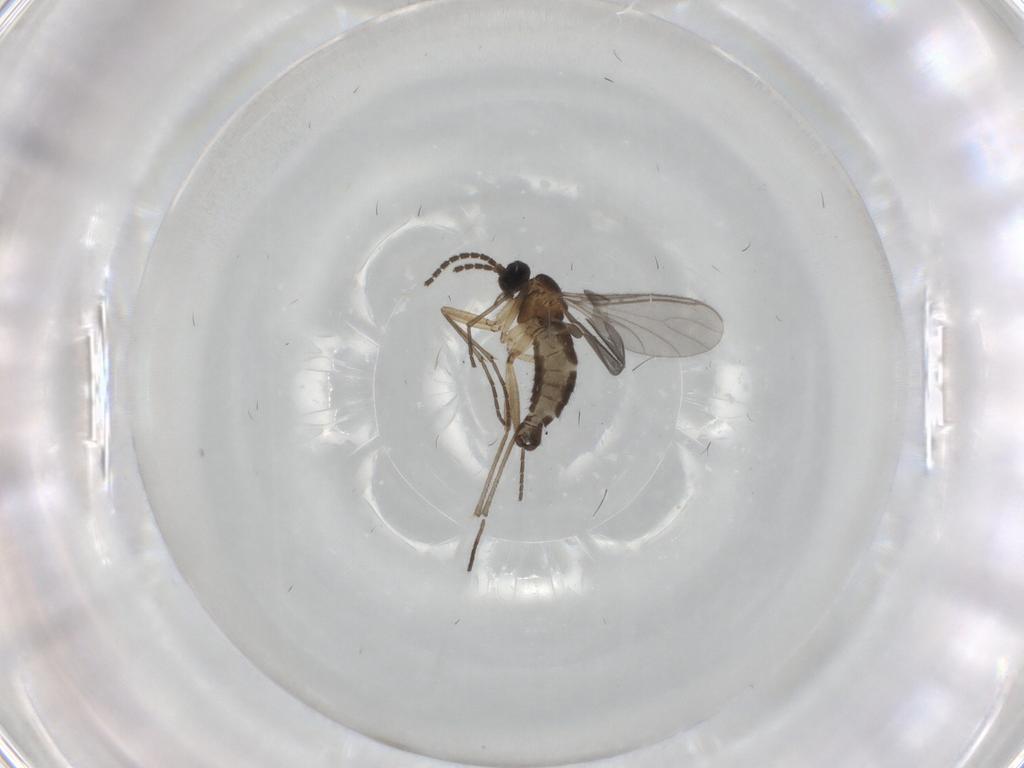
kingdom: Animalia
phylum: Arthropoda
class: Insecta
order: Diptera
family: Sciaridae
